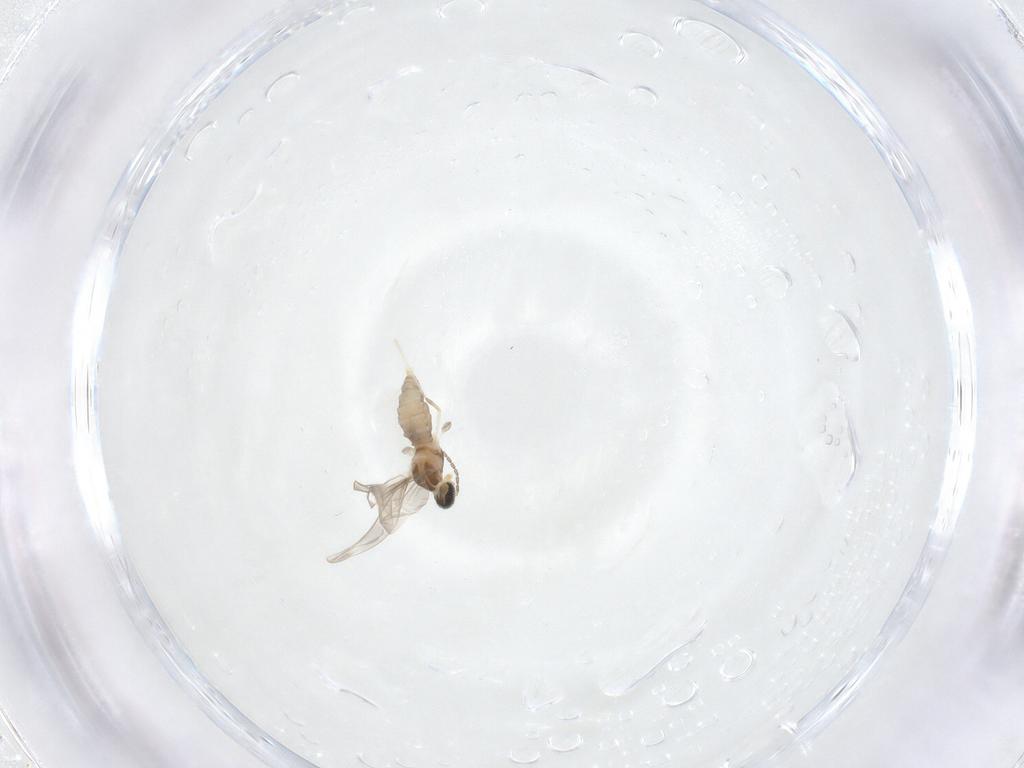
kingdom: Animalia
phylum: Arthropoda
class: Insecta
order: Diptera
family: Cecidomyiidae
